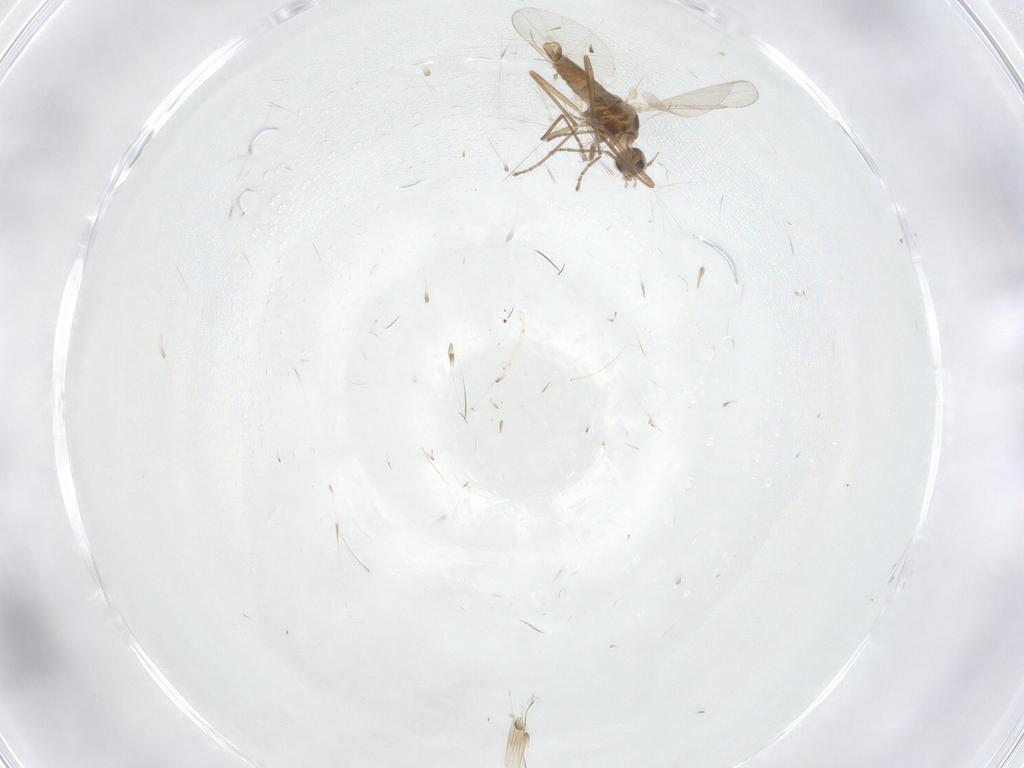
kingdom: Animalia
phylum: Arthropoda
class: Insecta
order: Diptera
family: Cecidomyiidae
